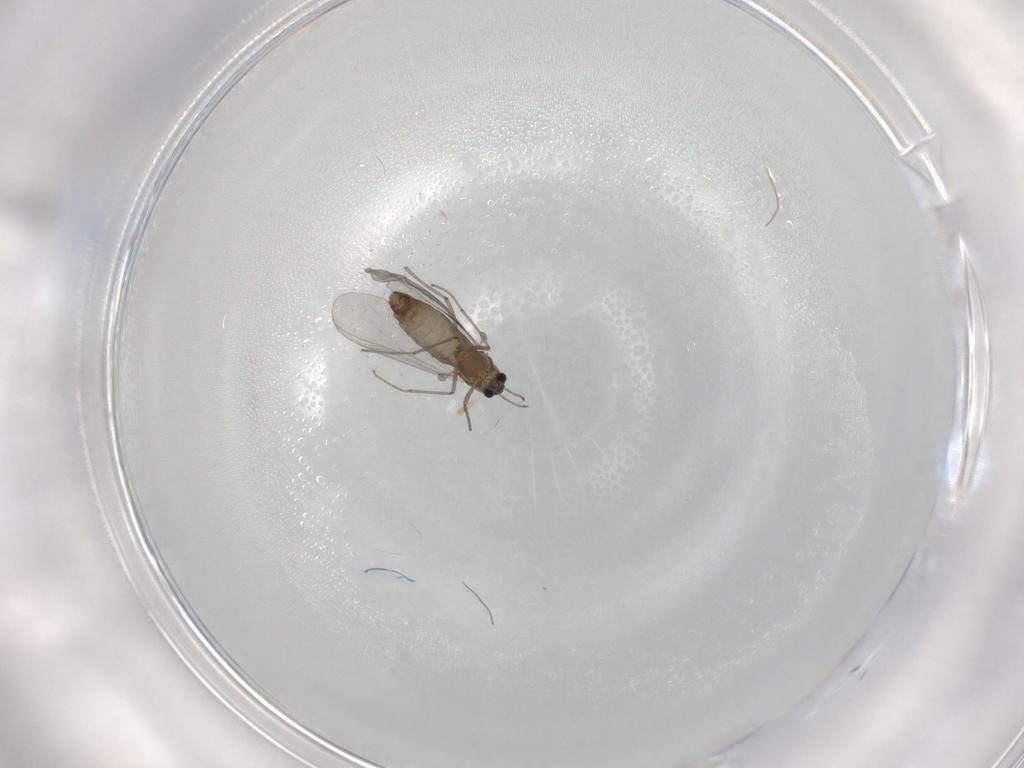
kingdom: Animalia
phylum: Arthropoda
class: Insecta
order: Diptera
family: Chironomidae
